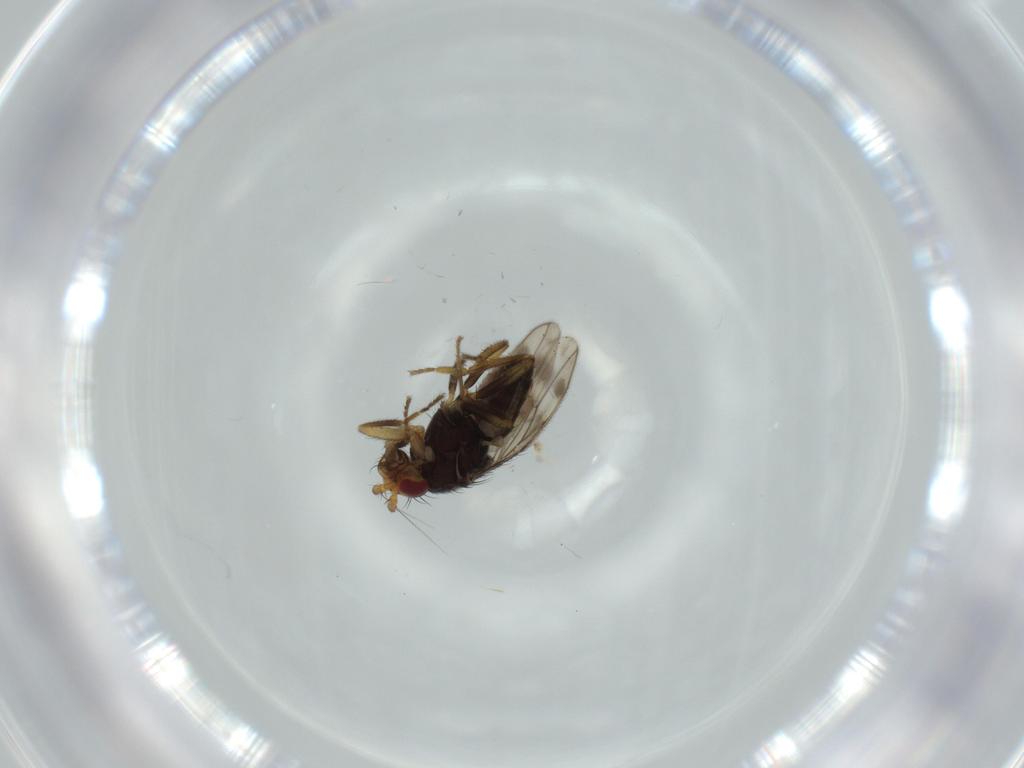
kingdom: Animalia
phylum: Arthropoda
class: Insecta
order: Diptera
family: Sphaeroceridae
